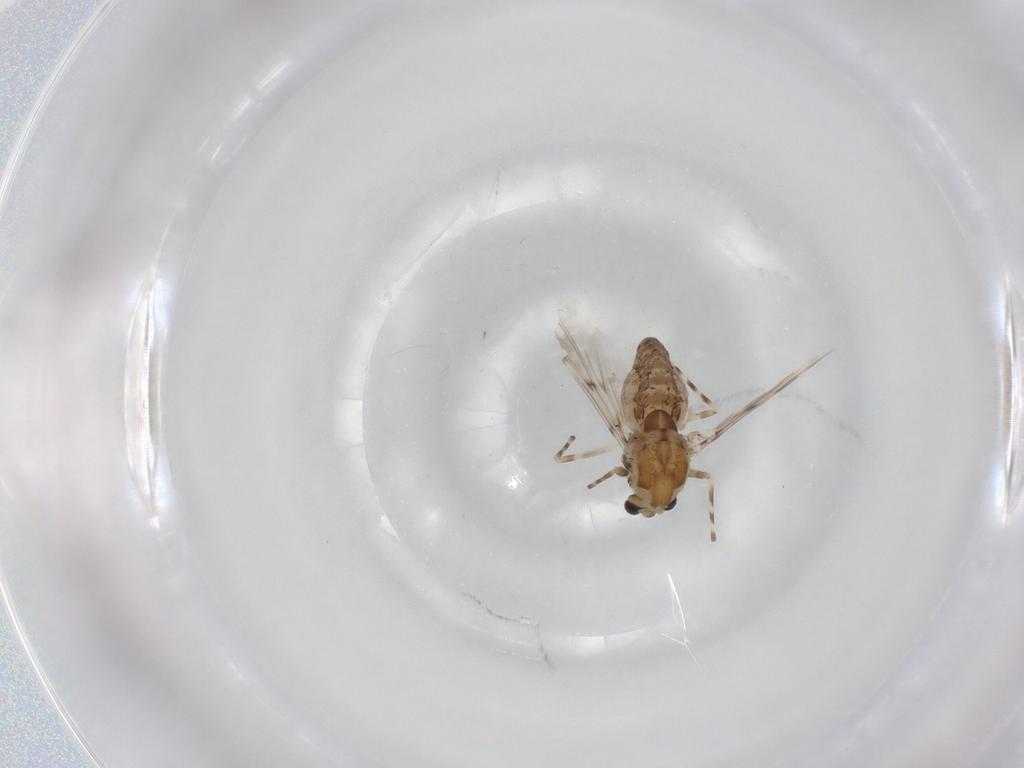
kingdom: Animalia
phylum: Arthropoda
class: Insecta
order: Diptera
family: Chironomidae
